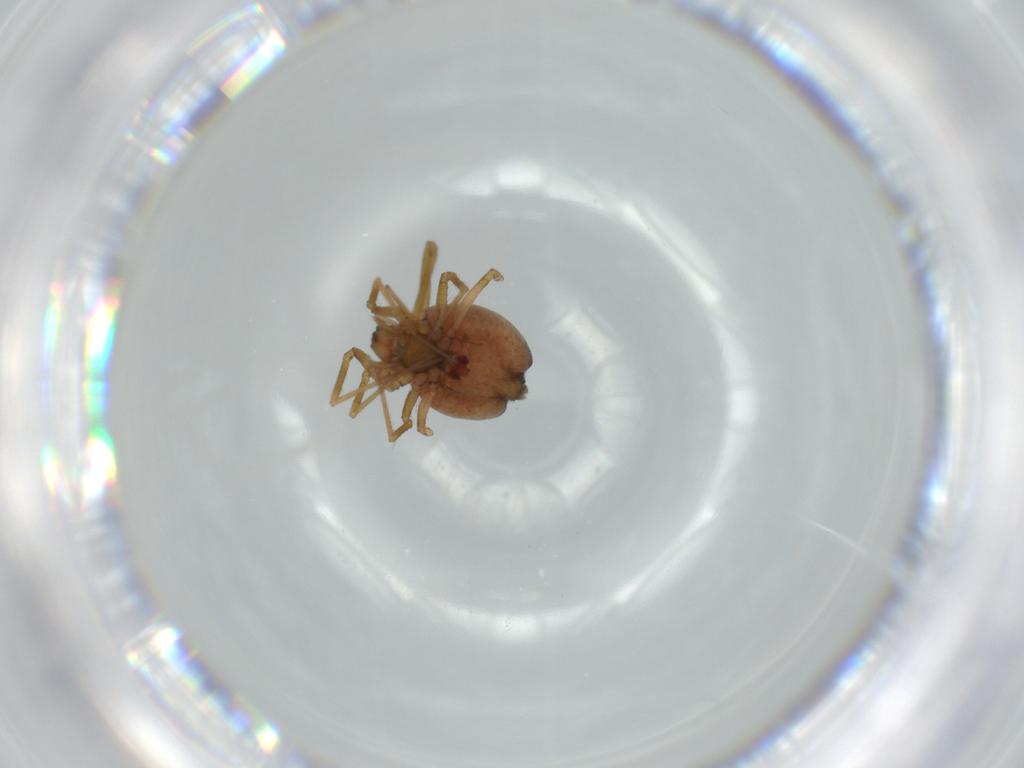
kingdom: Animalia
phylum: Arthropoda
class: Arachnida
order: Araneae
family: Linyphiidae
